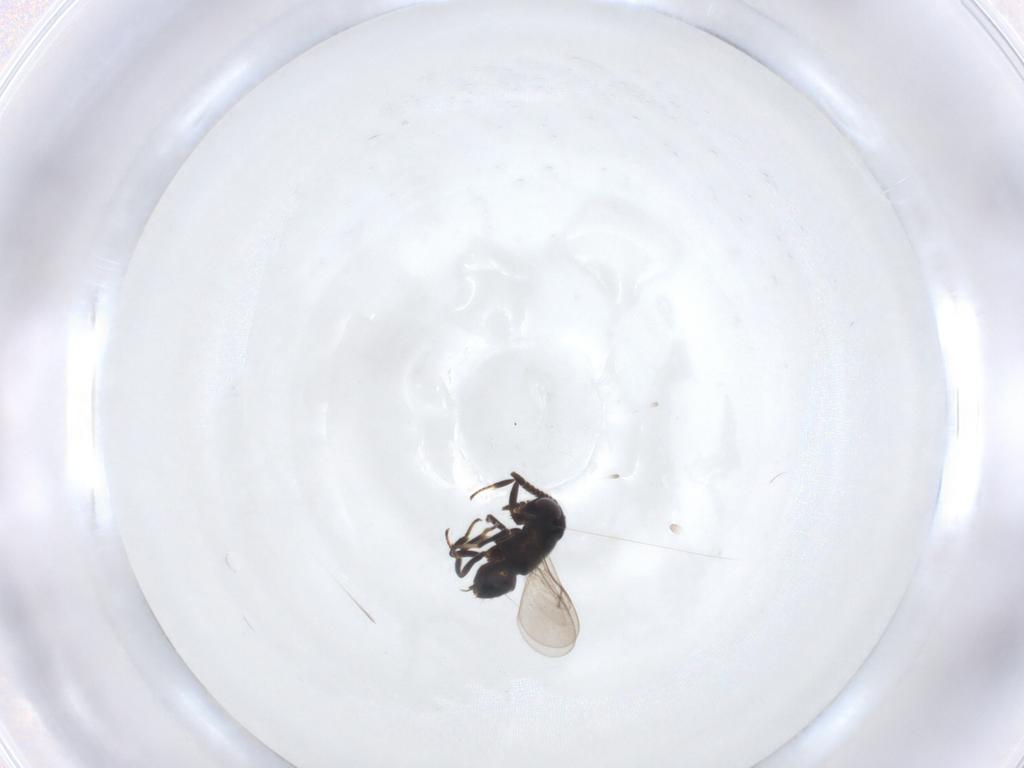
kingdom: Animalia
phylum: Arthropoda
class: Insecta
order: Hymenoptera
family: Encyrtidae
